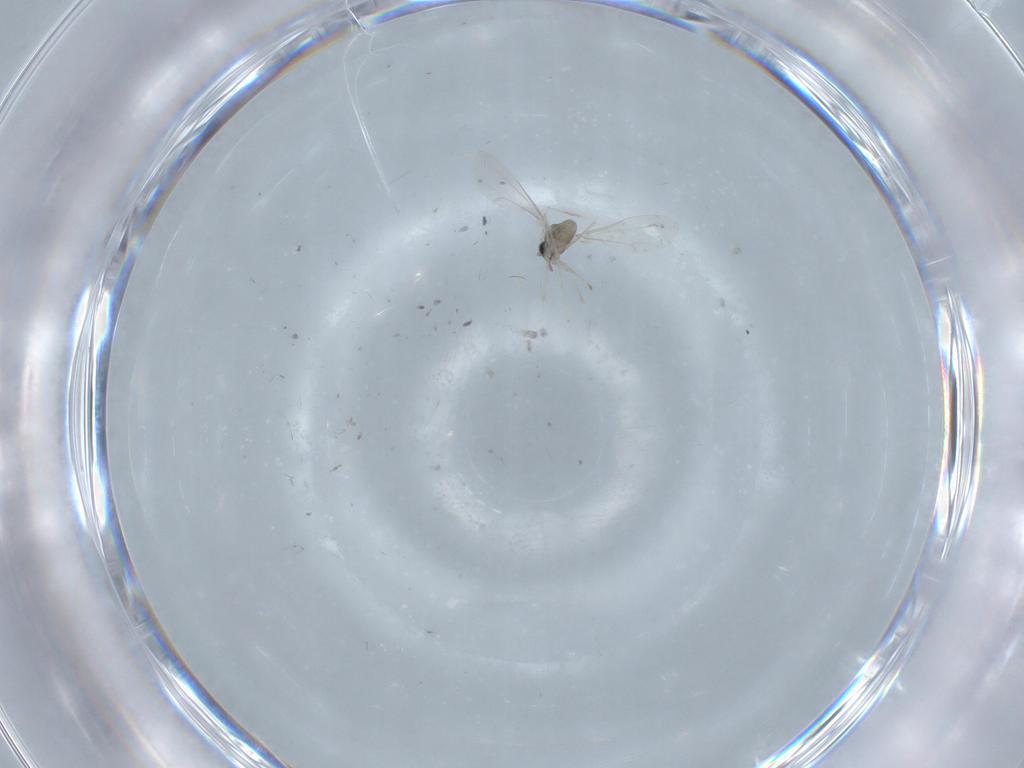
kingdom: Animalia
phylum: Arthropoda
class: Insecta
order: Diptera
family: Cecidomyiidae
